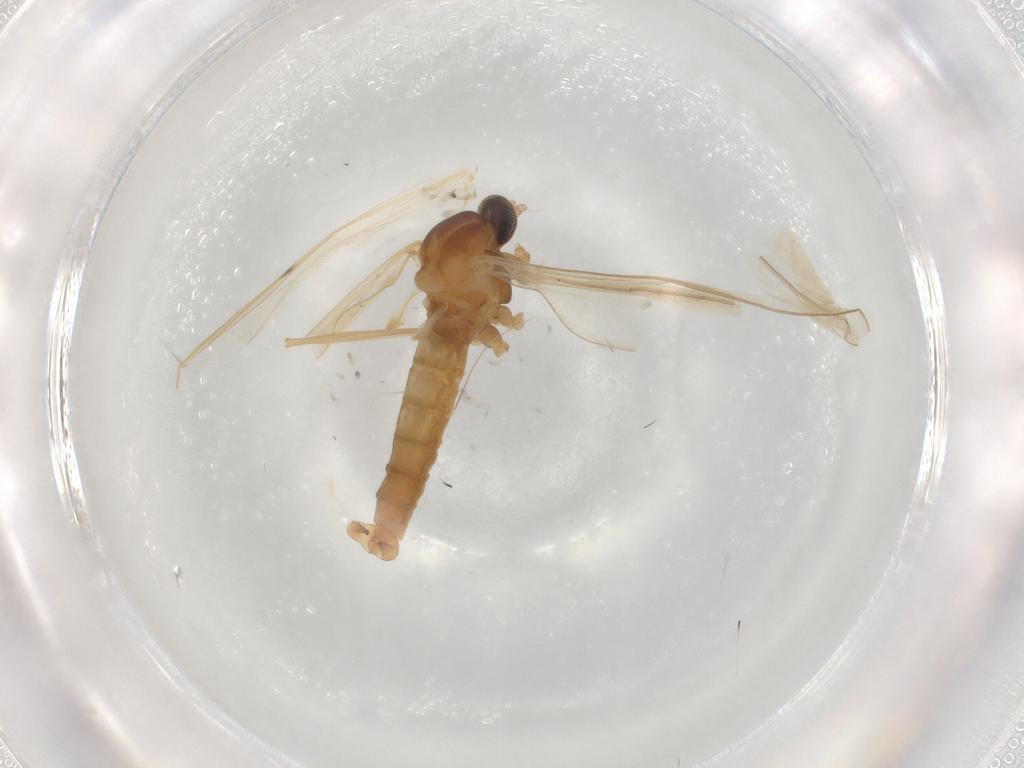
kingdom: Animalia
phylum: Arthropoda
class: Insecta
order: Diptera
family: Cecidomyiidae
